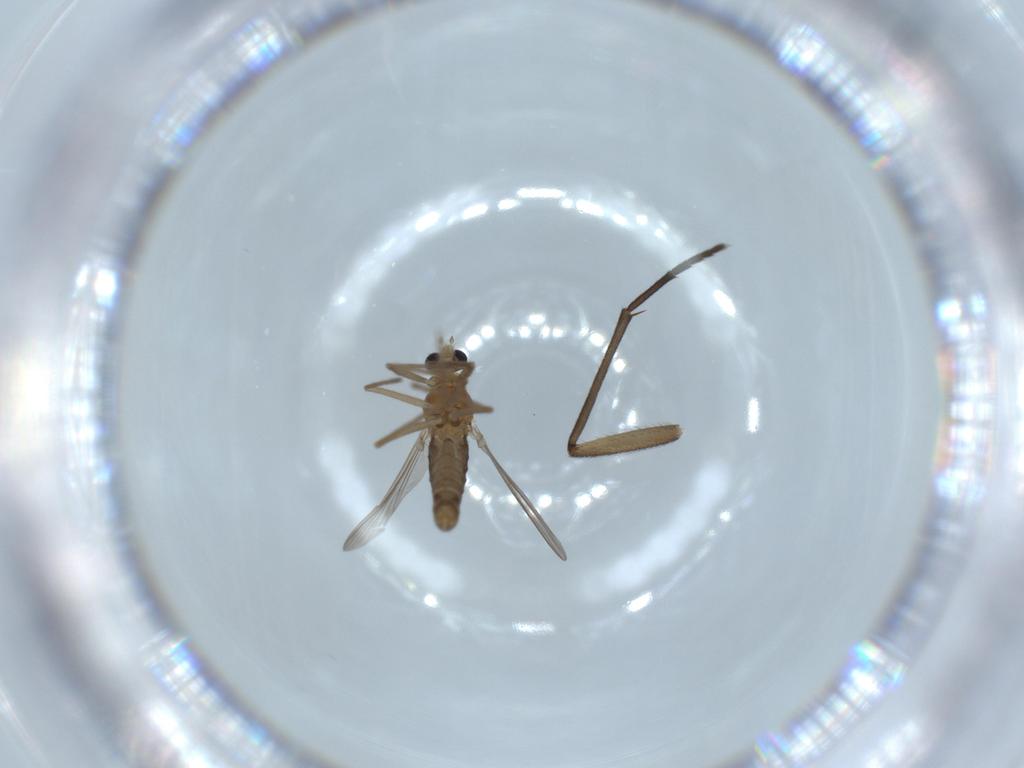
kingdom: Animalia
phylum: Arthropoda
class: Insecta
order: Diptera
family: Chironomidae
